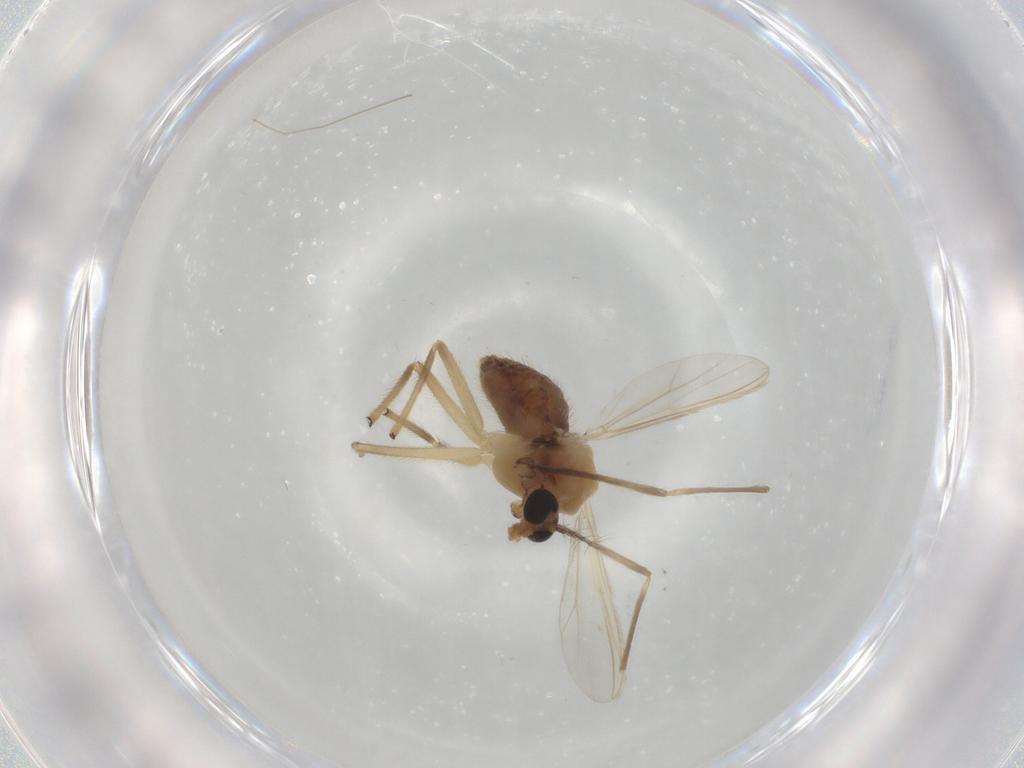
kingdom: Animalia
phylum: Arthropoda
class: Insecta
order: Diptera
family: Chironomidae
